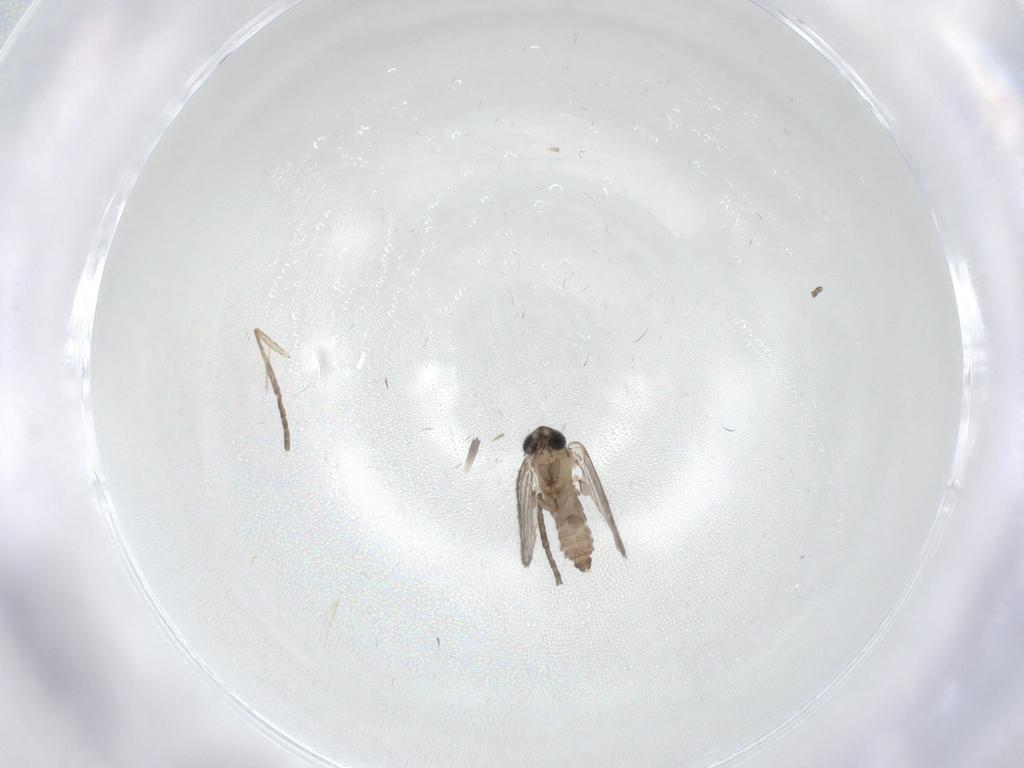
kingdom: Animalia
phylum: Arthropoda
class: Insecta
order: Diptera
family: Psychodidae
